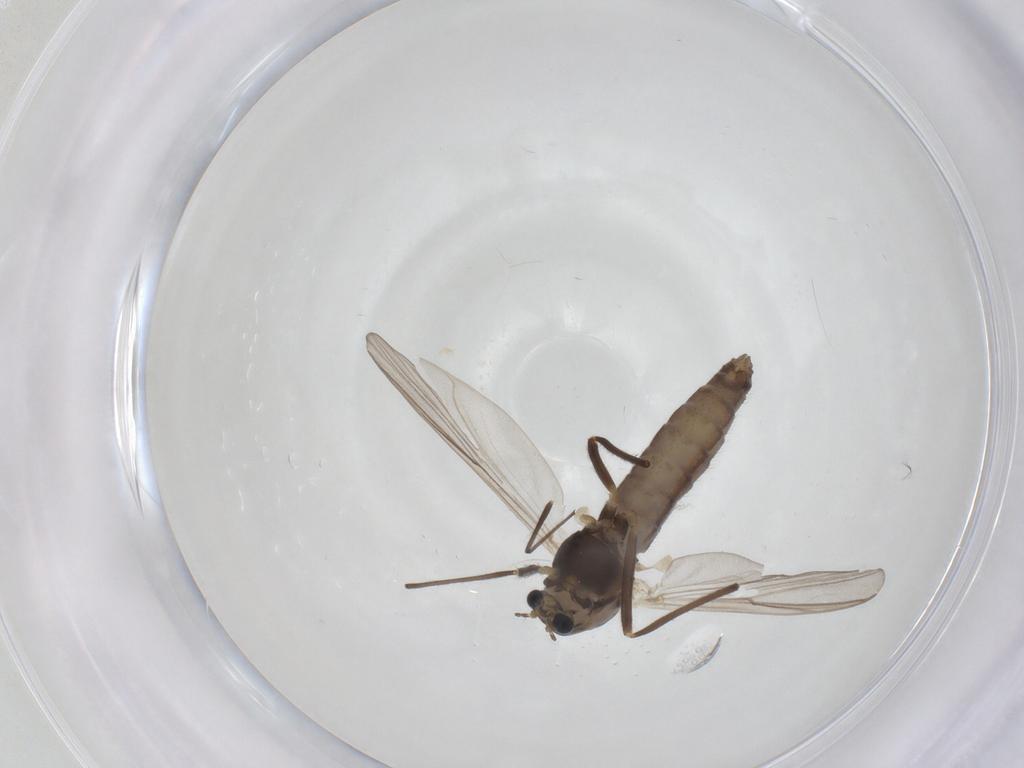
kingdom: Animalia
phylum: Arthropoda
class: Insecta
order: Diptera
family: Chironomidae
